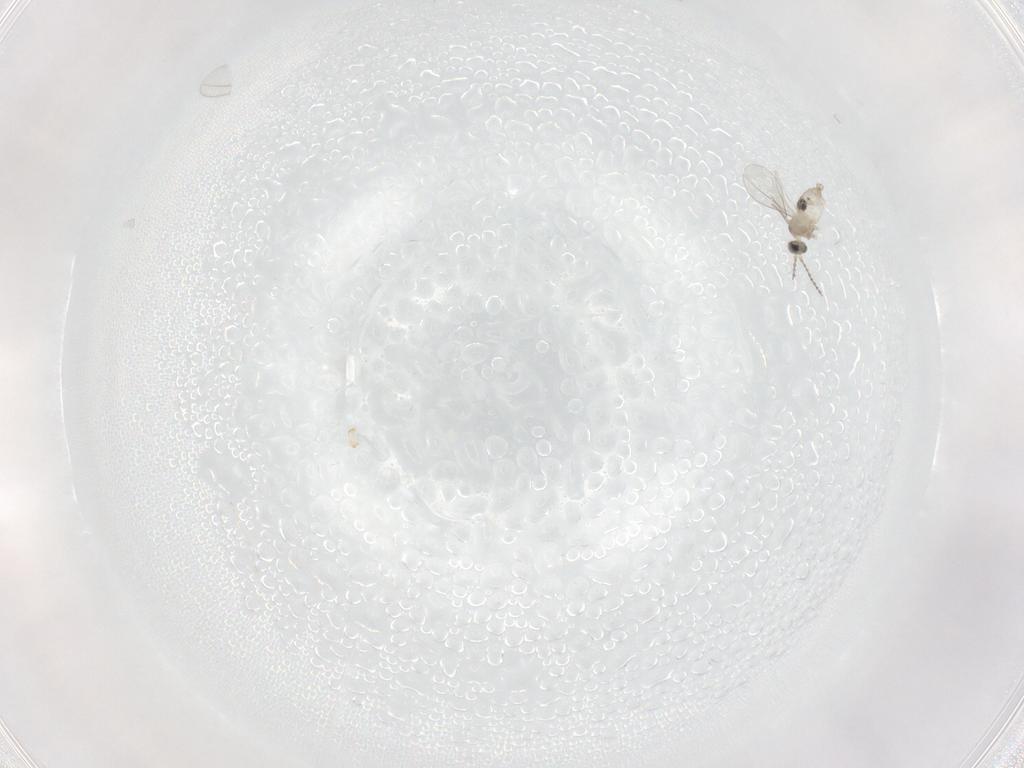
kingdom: Animalia
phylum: Arthropoda
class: Insecta
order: Diptera
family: Cecidomyiidae
